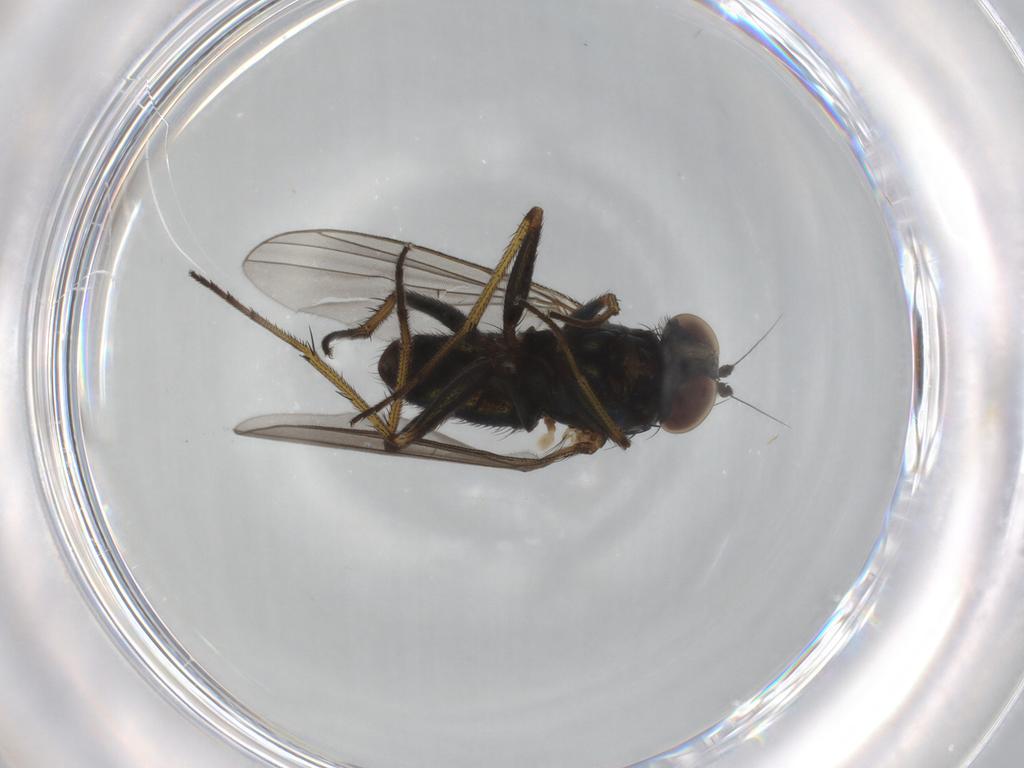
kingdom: Animalia
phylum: Arthropoda
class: Insecta
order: Diptera
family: Dolichopodidae
